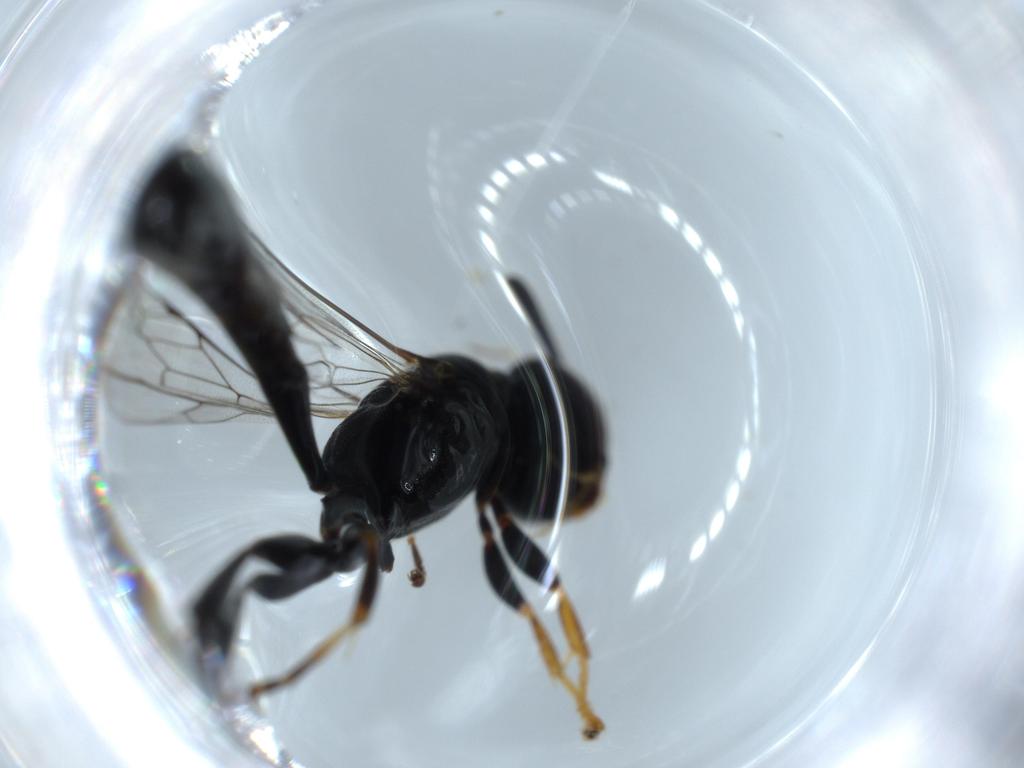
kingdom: Animalia
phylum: Arthropoda
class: Insecta
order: Hymenoptera
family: Crabronidae
